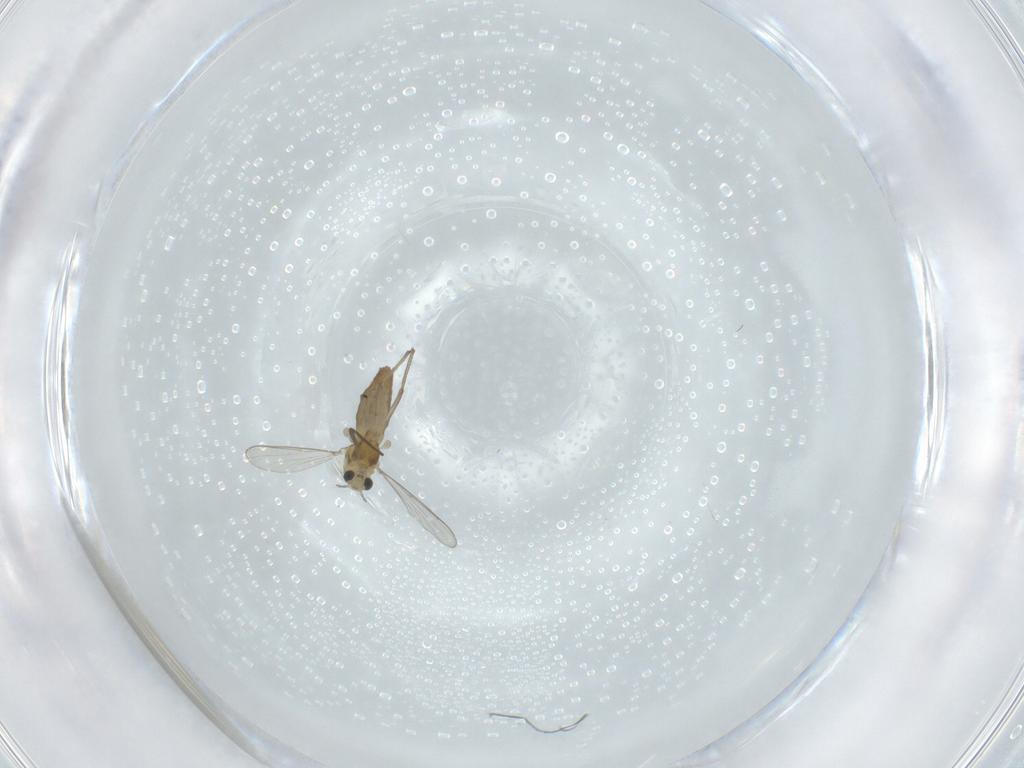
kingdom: Animalia
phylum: Arthropoda
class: Insecta
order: Diptera
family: Chironomidae
